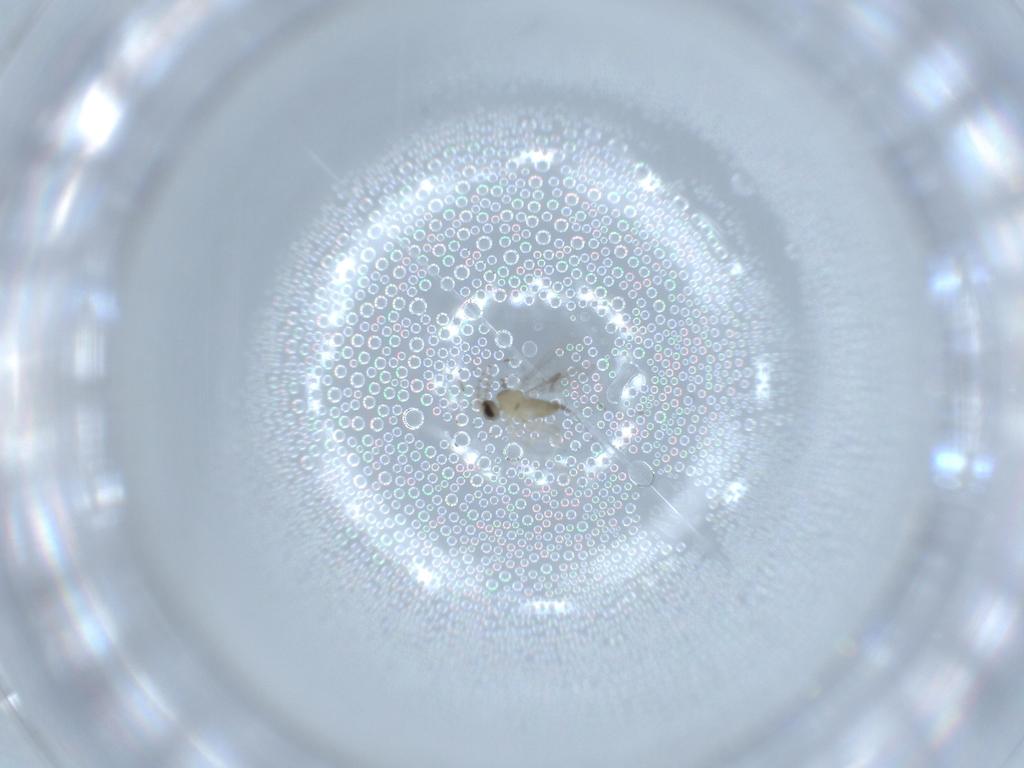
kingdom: Animalia
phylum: Arthropoda
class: Insecta
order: Diptera
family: Cecidomyiidae
